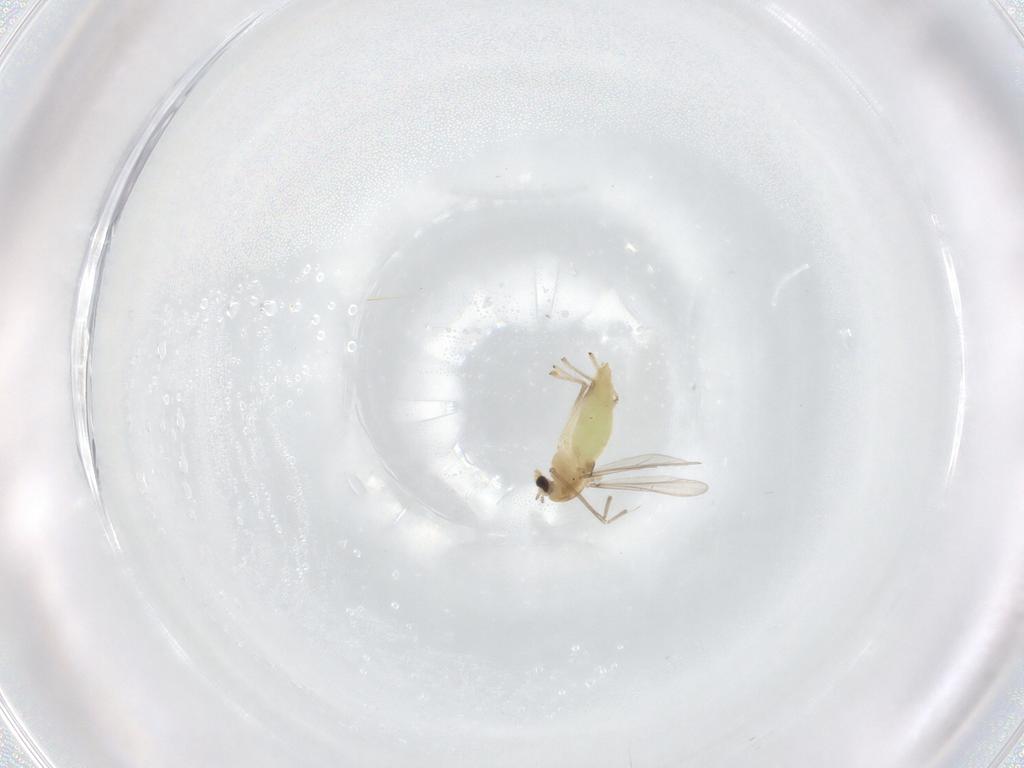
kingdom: Animalia
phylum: Arthropoda
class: Insecta
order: Diptera
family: Chironomidae
